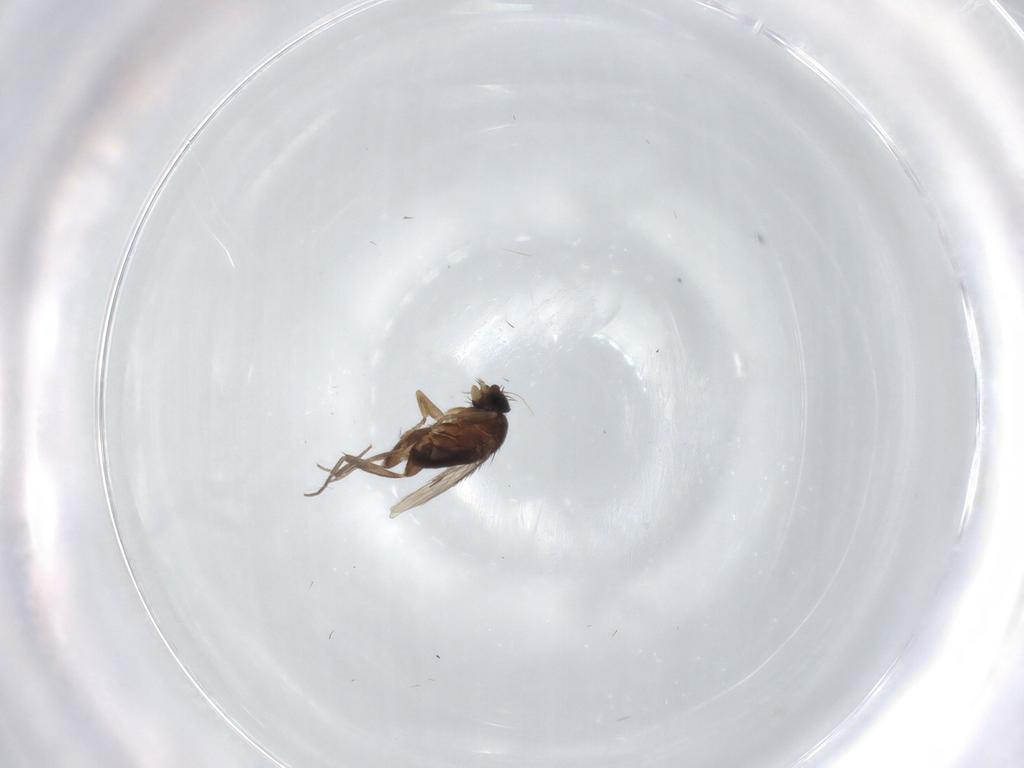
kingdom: Animalia
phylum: Arthropoda
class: Insecta
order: Diptera
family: Phoridae
